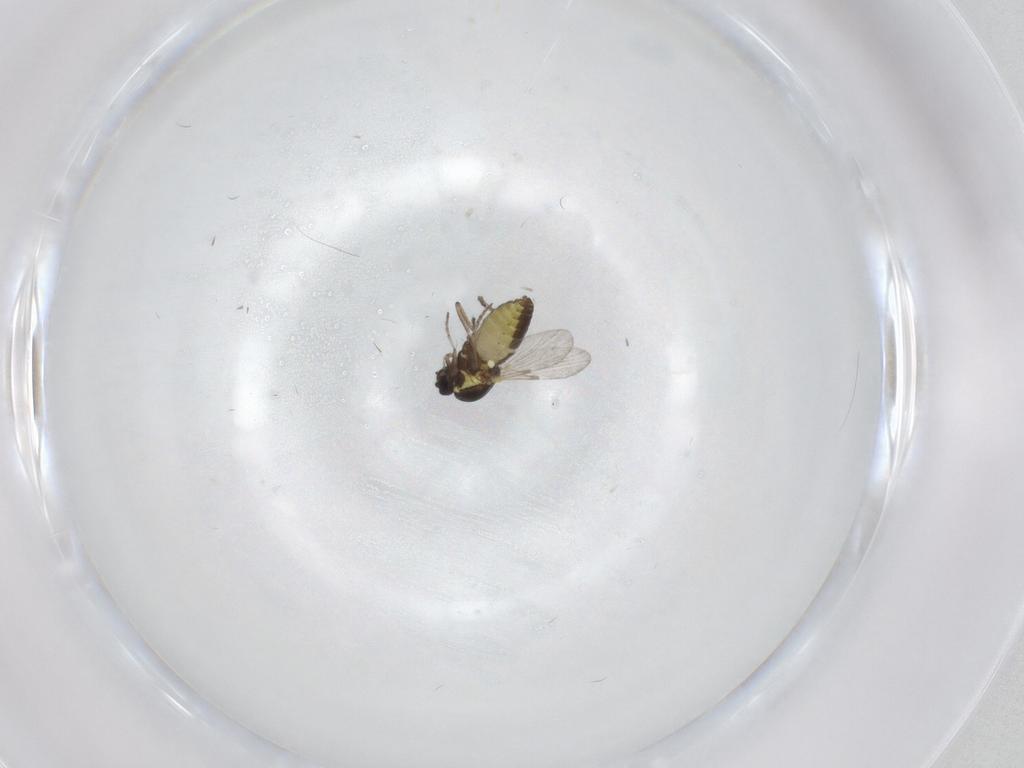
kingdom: Animalia
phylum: Arthropoda
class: Insecta
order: Diptera
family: Ceratopogonidae
